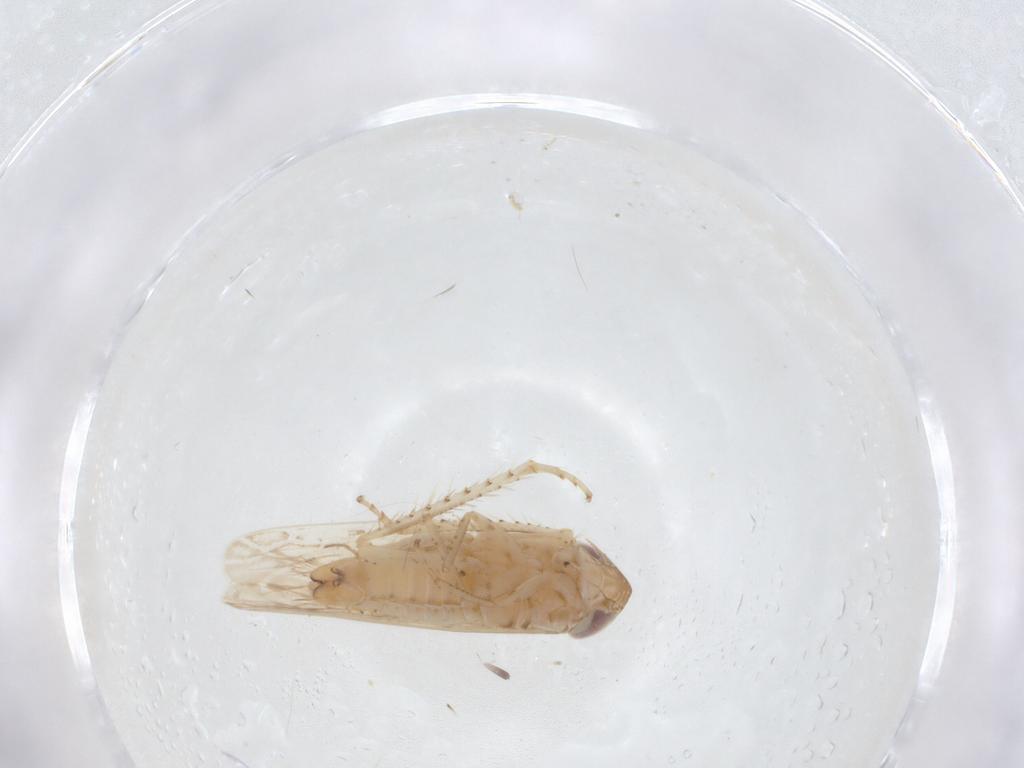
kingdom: Animalia
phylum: Arthropoda
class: Insecta
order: Hemiptera
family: Cicadellidae
